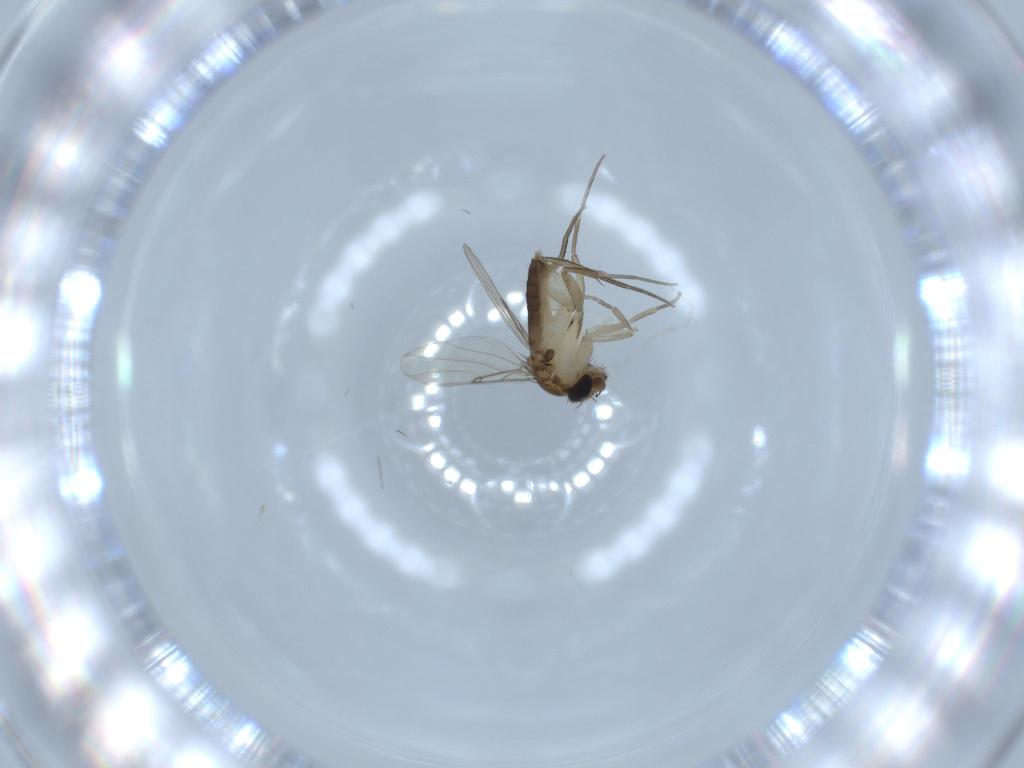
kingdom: Animalia
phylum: Arthropoda
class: Insecta
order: Diptera
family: Phoridae
